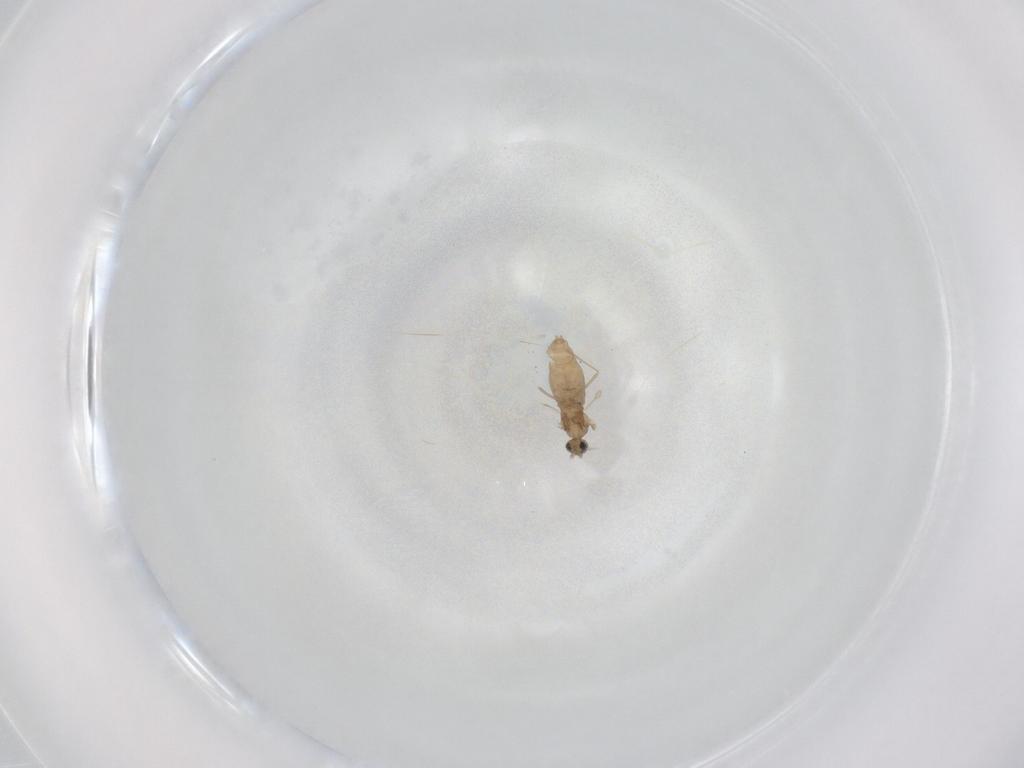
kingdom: Animalia
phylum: Arthropoda
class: Insecta
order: Diptera
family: Cecidomyiidae
